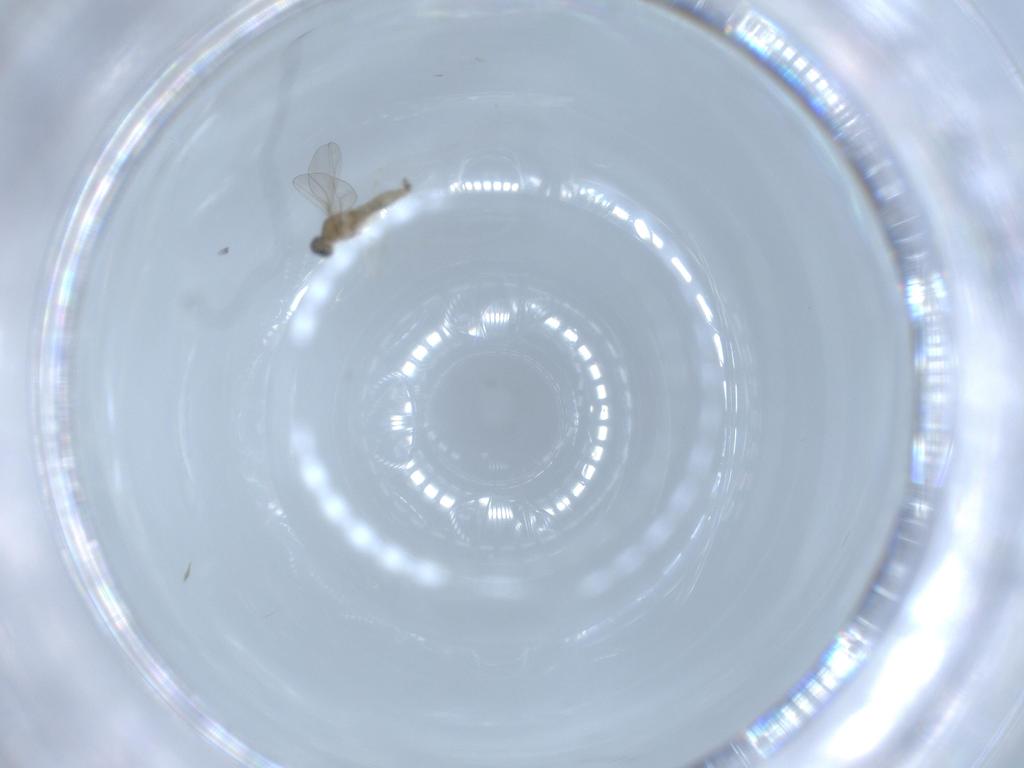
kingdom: Animalia
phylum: Arthropoda
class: Insecta
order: Diptera
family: Cecidomyiidae
